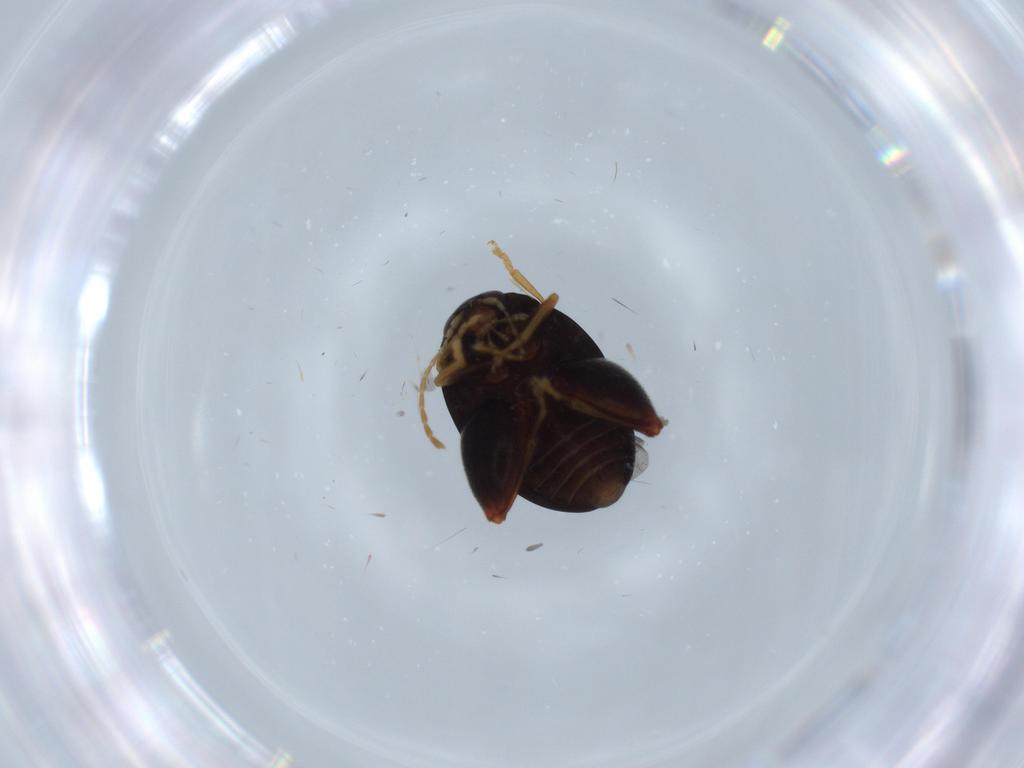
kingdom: Animalia
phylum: Arthropoda
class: Insecta
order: Coleoptera
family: Chrysomelidae
